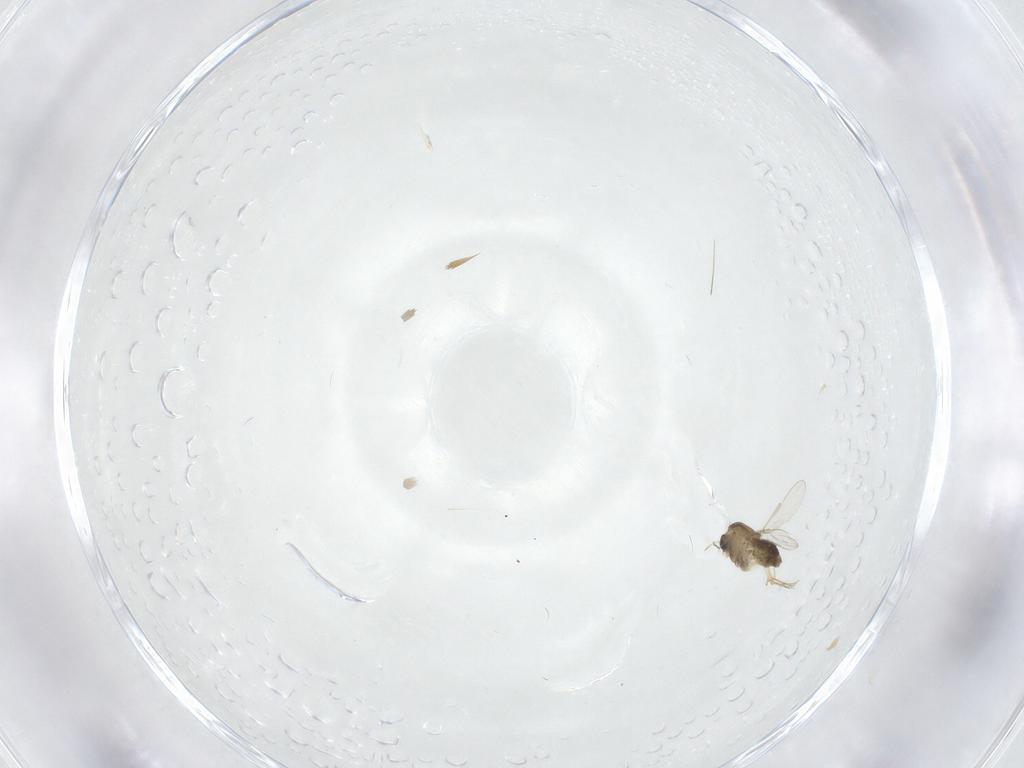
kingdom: Animalia
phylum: Arthropoda
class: Insecta
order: Diptera
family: Chironomidae
